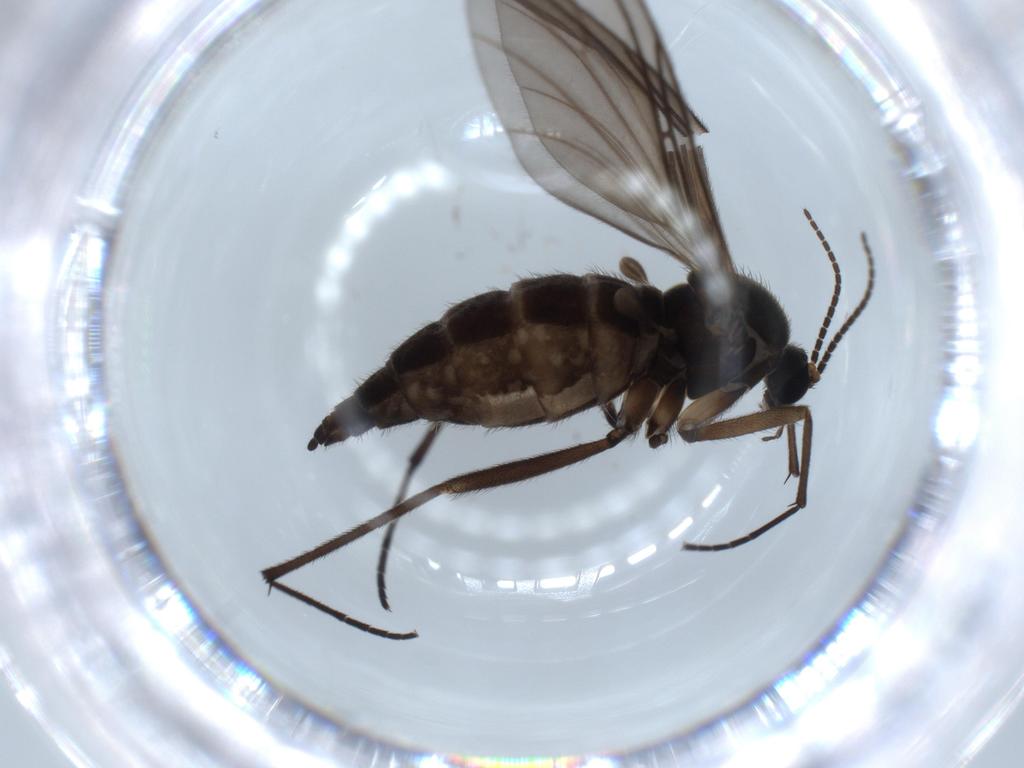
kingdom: Animalia
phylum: Arthropoda
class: Insecta
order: Diptera
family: Sciaridae
